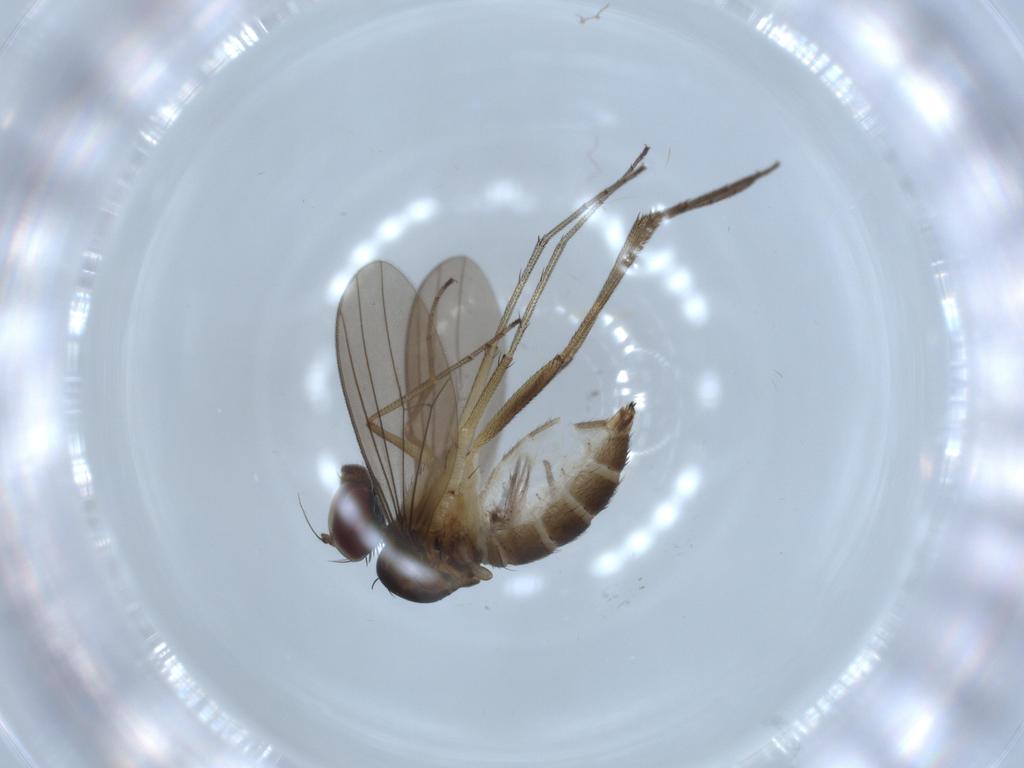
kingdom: Animalia
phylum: Arthropoda
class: Insecta
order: Diptera
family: Dolichopodidae
